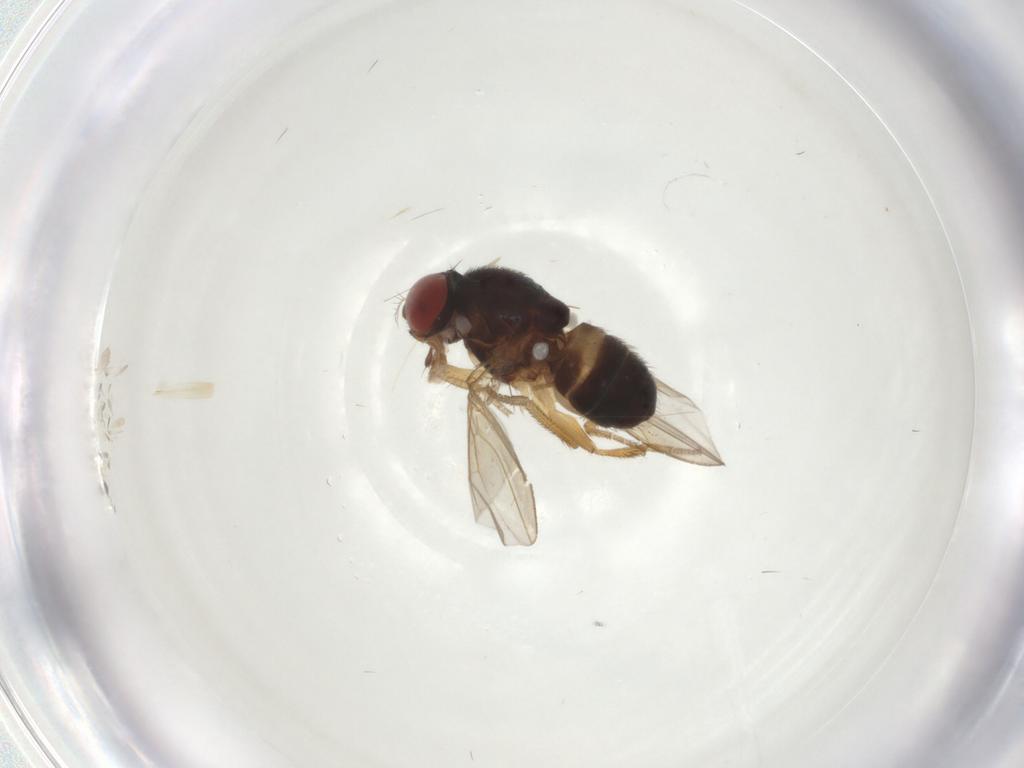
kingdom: Animalia
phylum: Arthropoda
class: Insecta
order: Diptera
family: Drosophilidae
